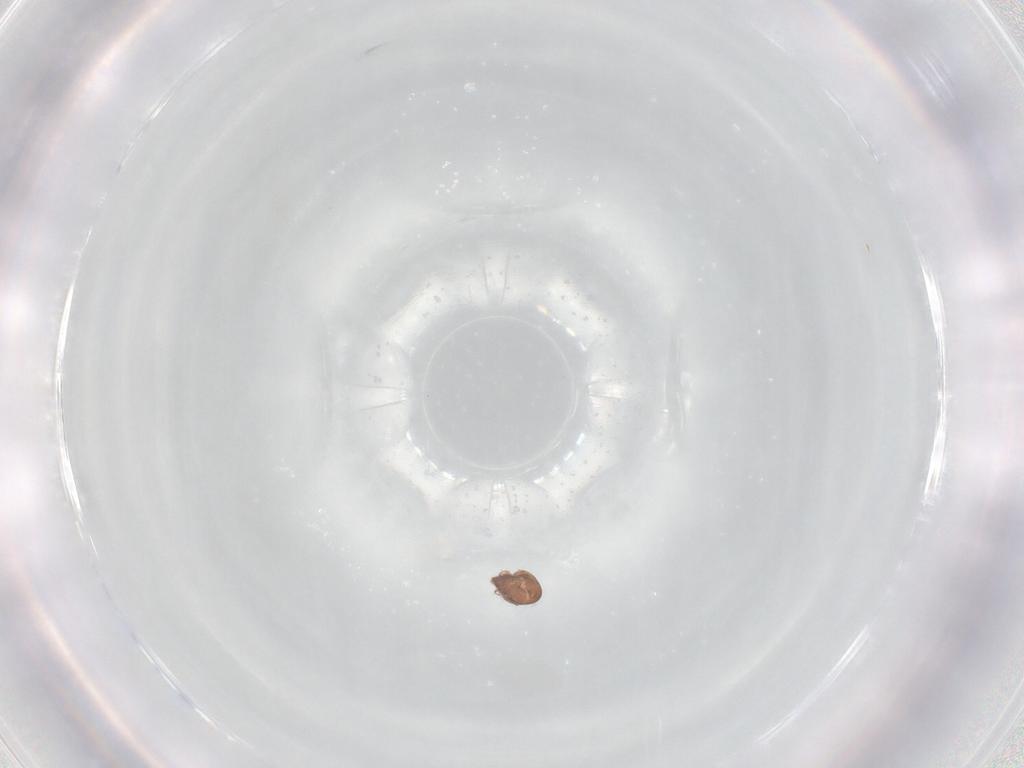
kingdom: Animalia
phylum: Arthropoda
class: Arachnida
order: Sarcoptiformes
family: Ceratozetidae
